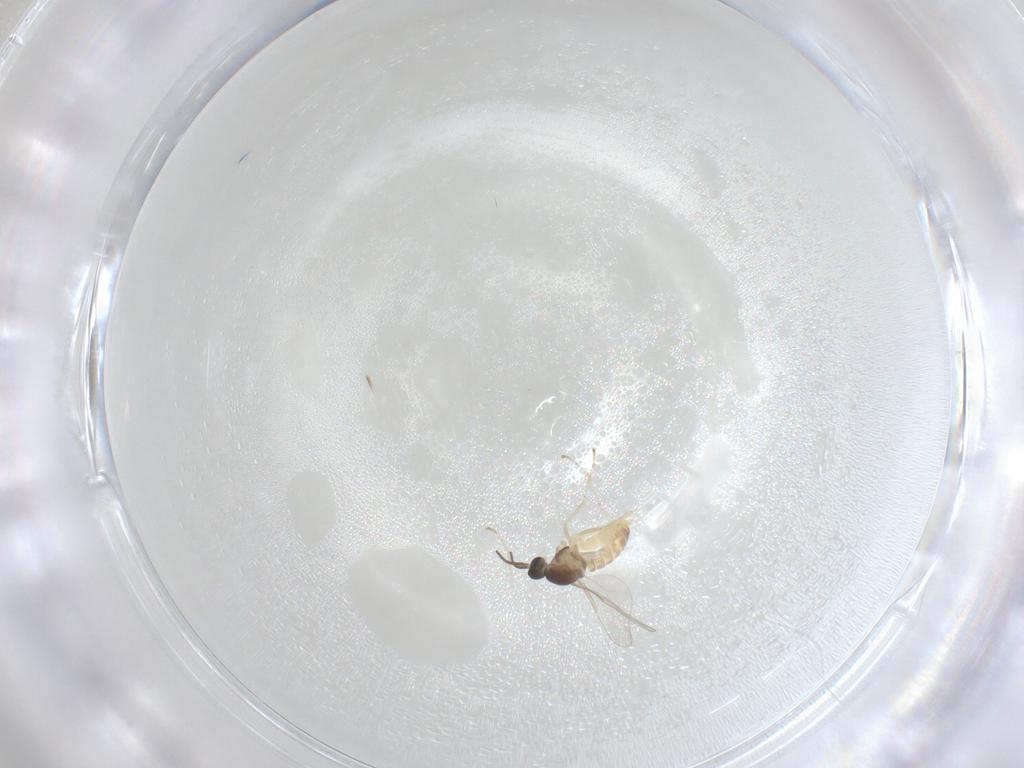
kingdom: Animalia
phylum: Arthropoda
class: Insecta
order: Diptera
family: Cecidomyiidae
